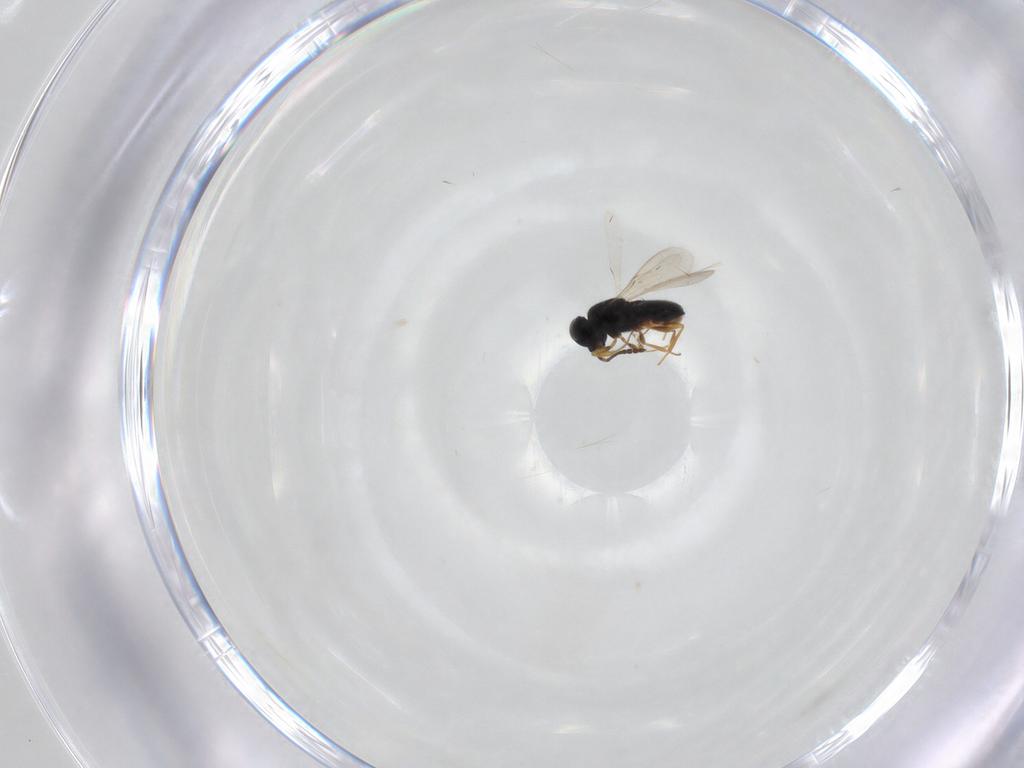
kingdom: Animalia
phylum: Arthropoda
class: Insecta
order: Hymenoptera
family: Scelionidae
